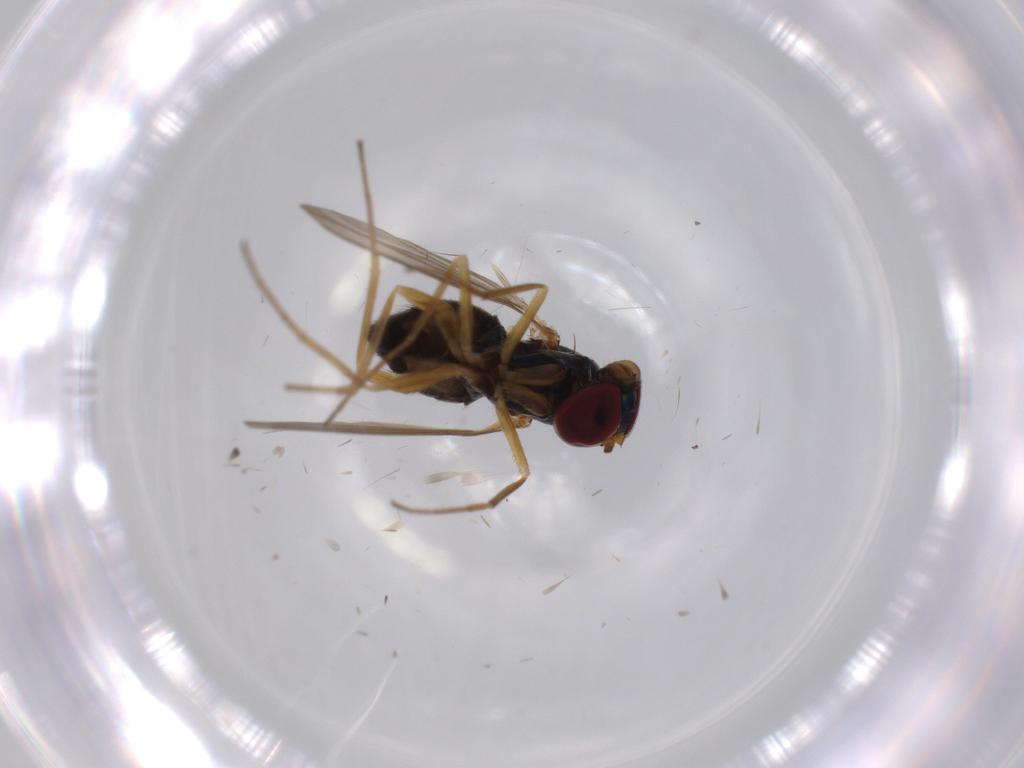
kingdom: Animalia
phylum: Arthropoda
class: Insecta
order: Diptera
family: Dolichopodidae
